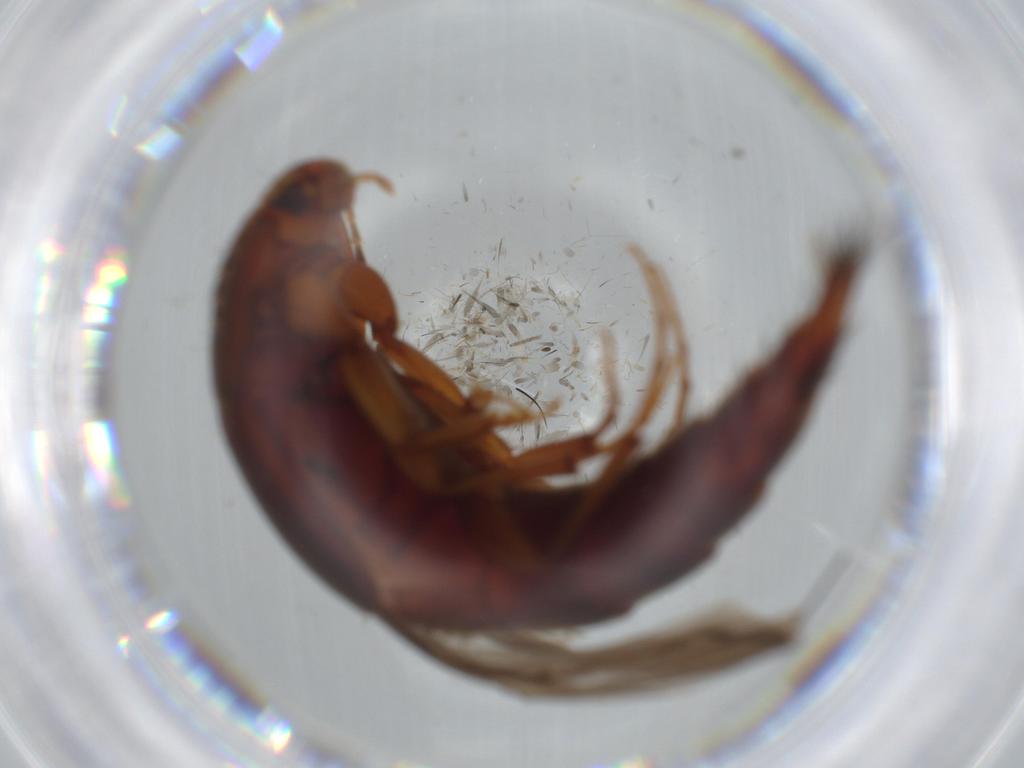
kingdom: Animalia
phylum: Arthropoda
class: Insecta
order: Coleoptera
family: Staphylinidae
